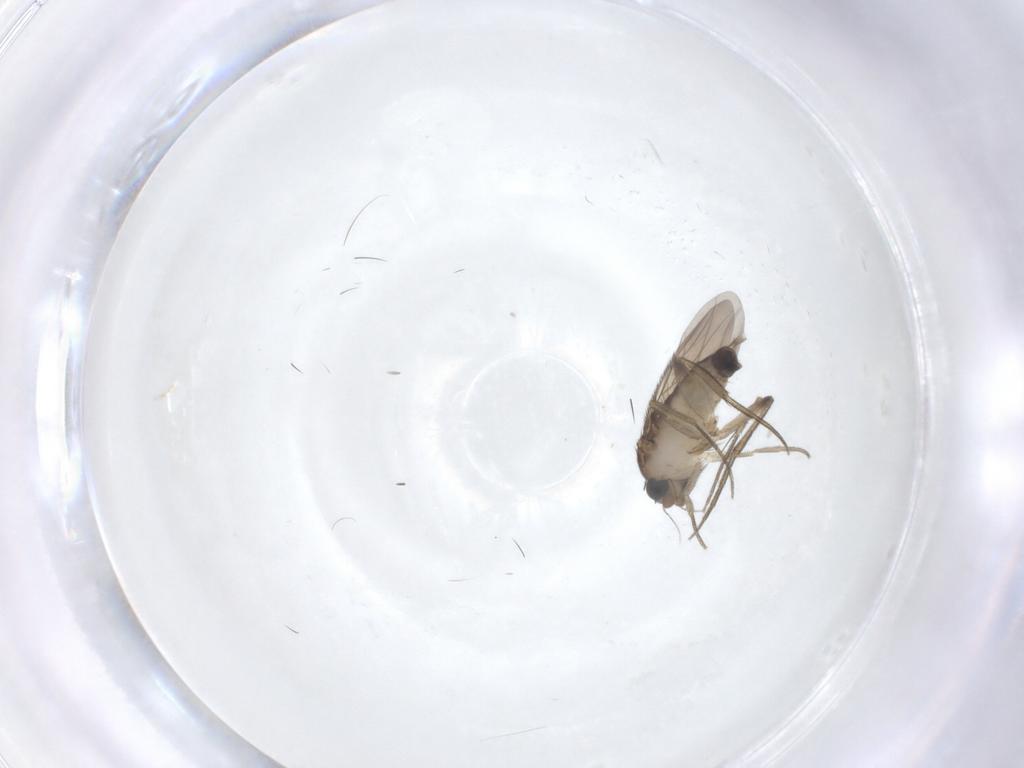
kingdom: Animalia
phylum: Arthropoda
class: Insecta
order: Diptera
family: Phoridae
